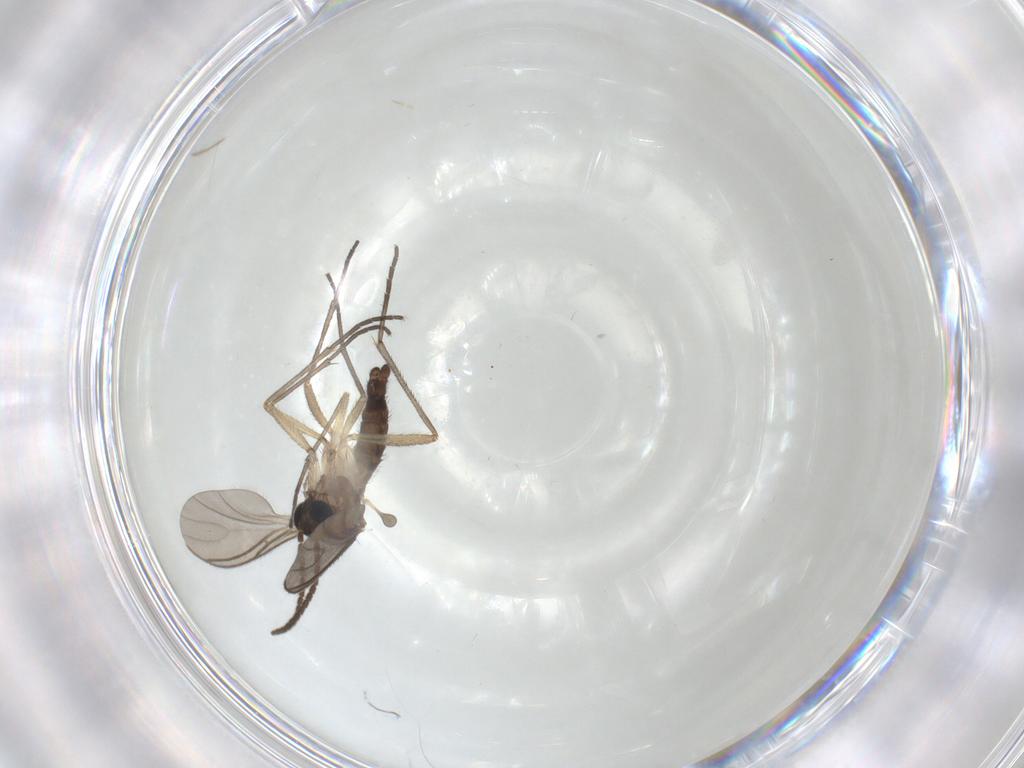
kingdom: Animalia
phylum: Arthropoda
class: Insecta
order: Diptera
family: Sciaridae
